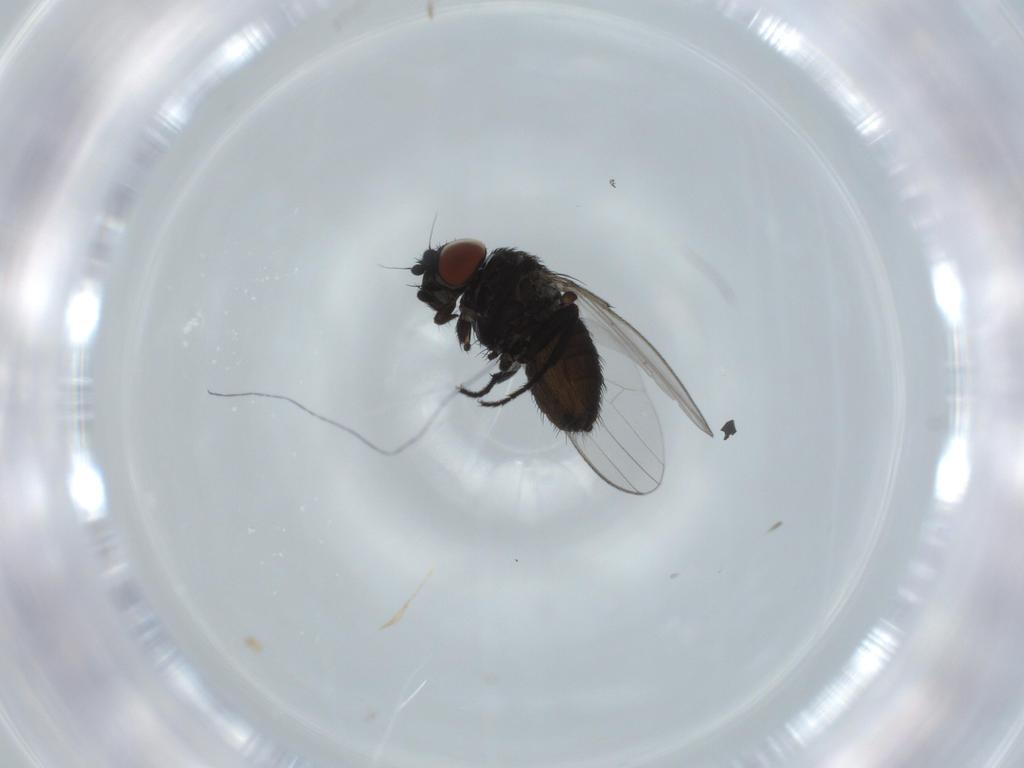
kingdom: Animalia
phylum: Arthropoda
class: Insecta
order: Diptera
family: Milichiidae
